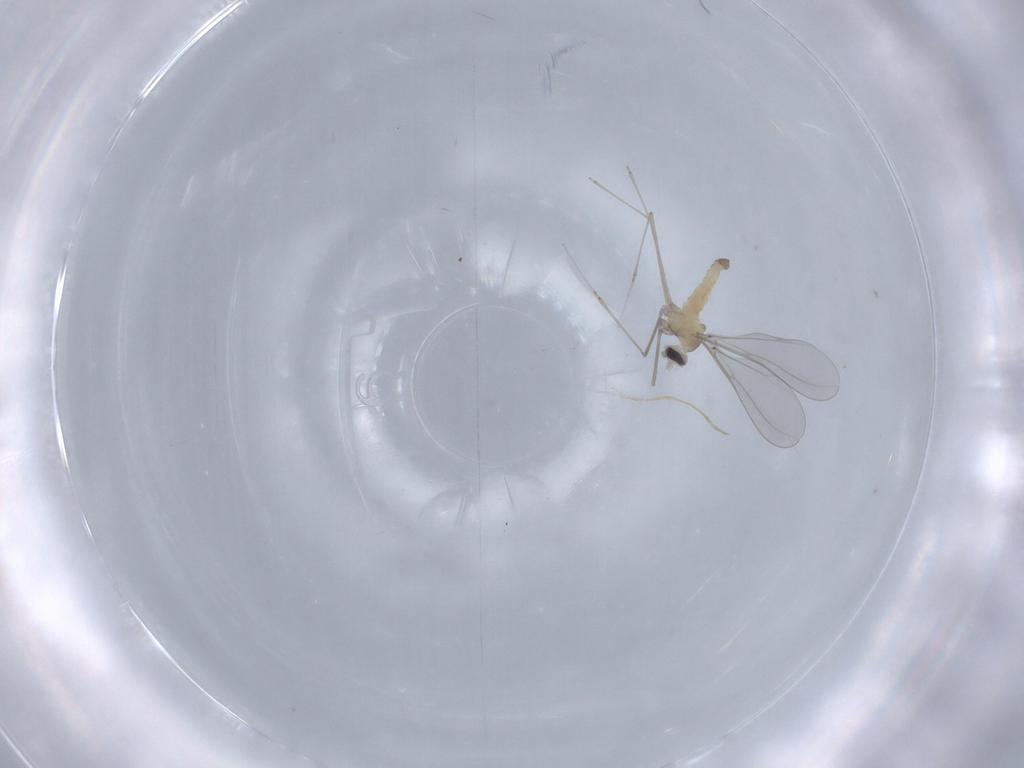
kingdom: Animalia
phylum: Arthropoda
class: Insecta
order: Diptera
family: Cecidomyiidae
